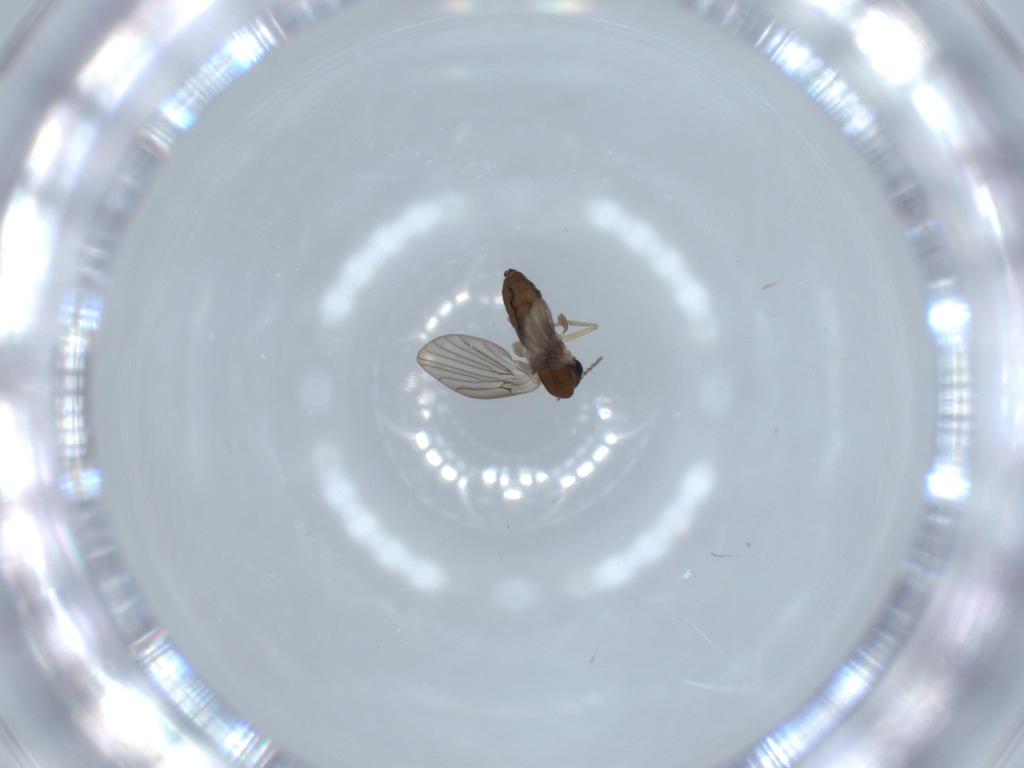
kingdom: Animalia
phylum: Arthropoda
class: Insecta
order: Diptera
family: Psychodidae
